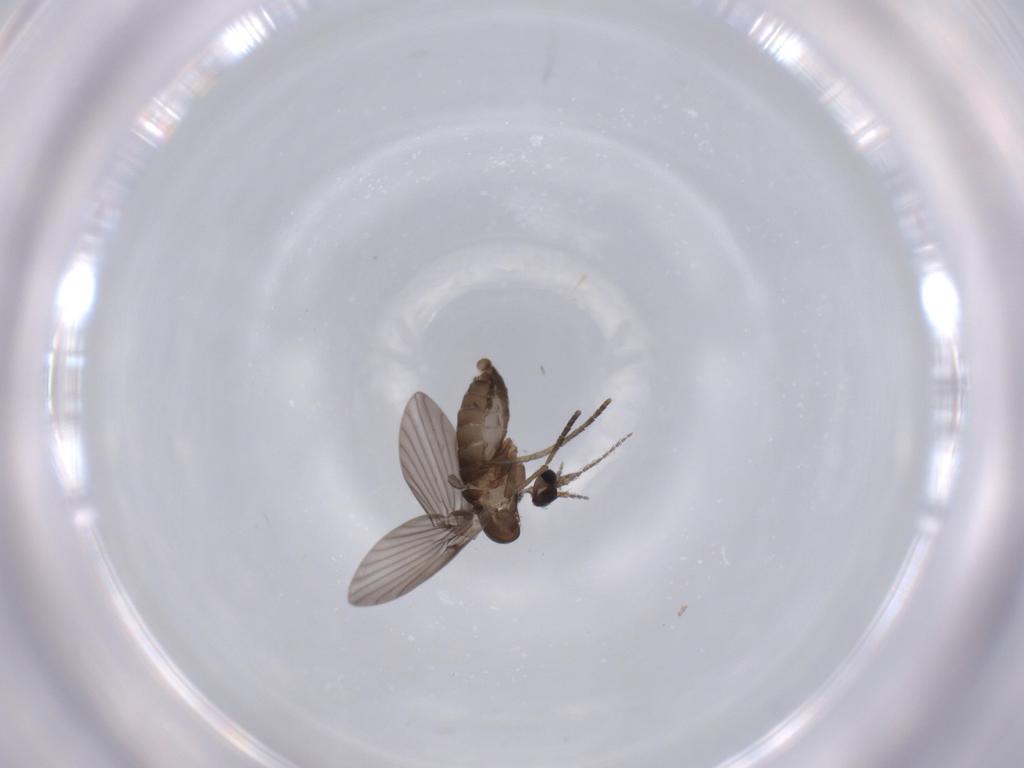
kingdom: Animalia
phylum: Arthropoda
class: Insecta
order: Diptera
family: Psychodidae
